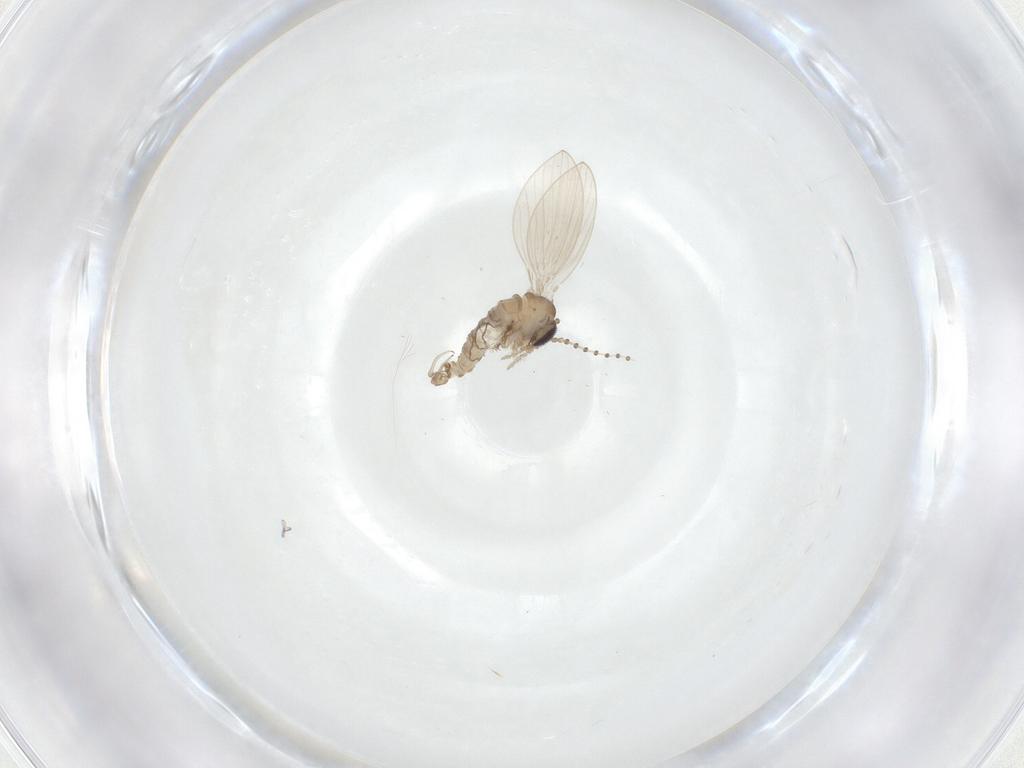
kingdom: Animalia
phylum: Arthropoda
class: Insecta
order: Diptera
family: Psychodidae
